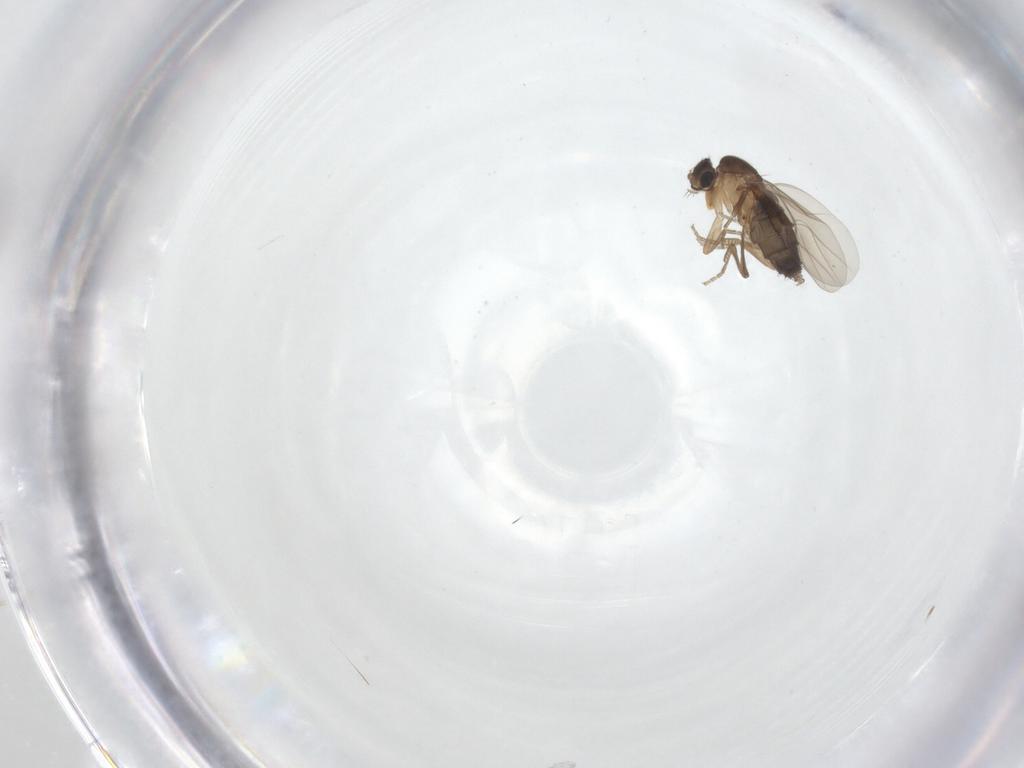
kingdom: Animalia
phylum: Arthropoda
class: Insecta
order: Diptera
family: Phoridae
